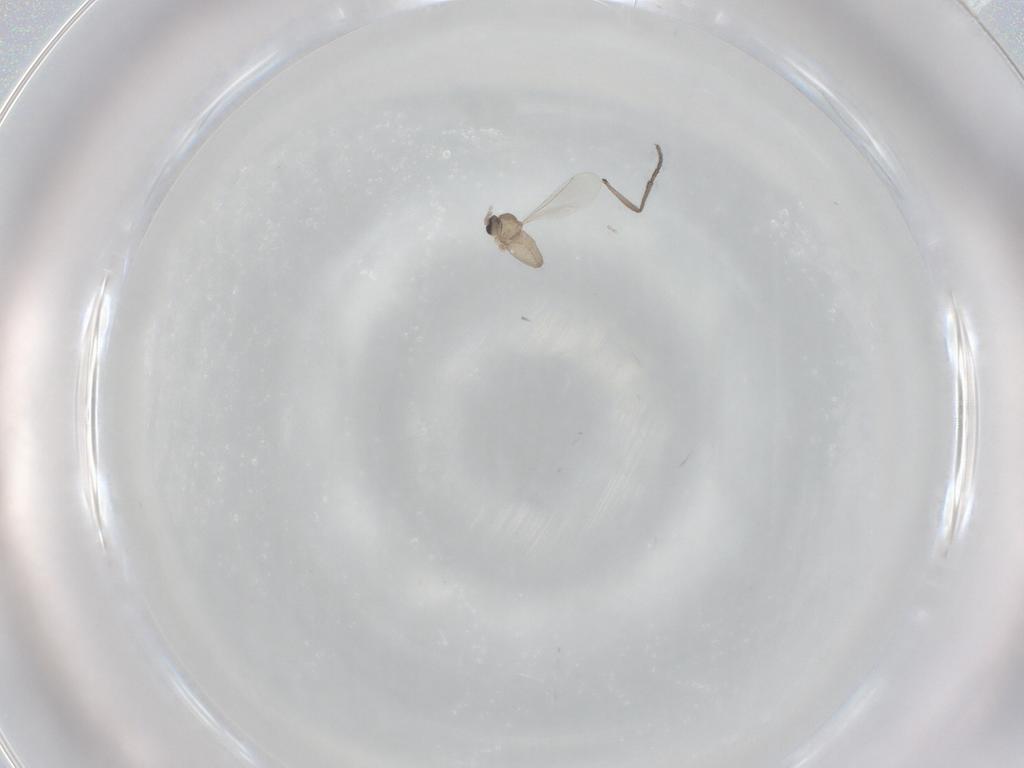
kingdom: Animalia
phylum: Arthropoda
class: Insecta
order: Diptera
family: Sciaridae
